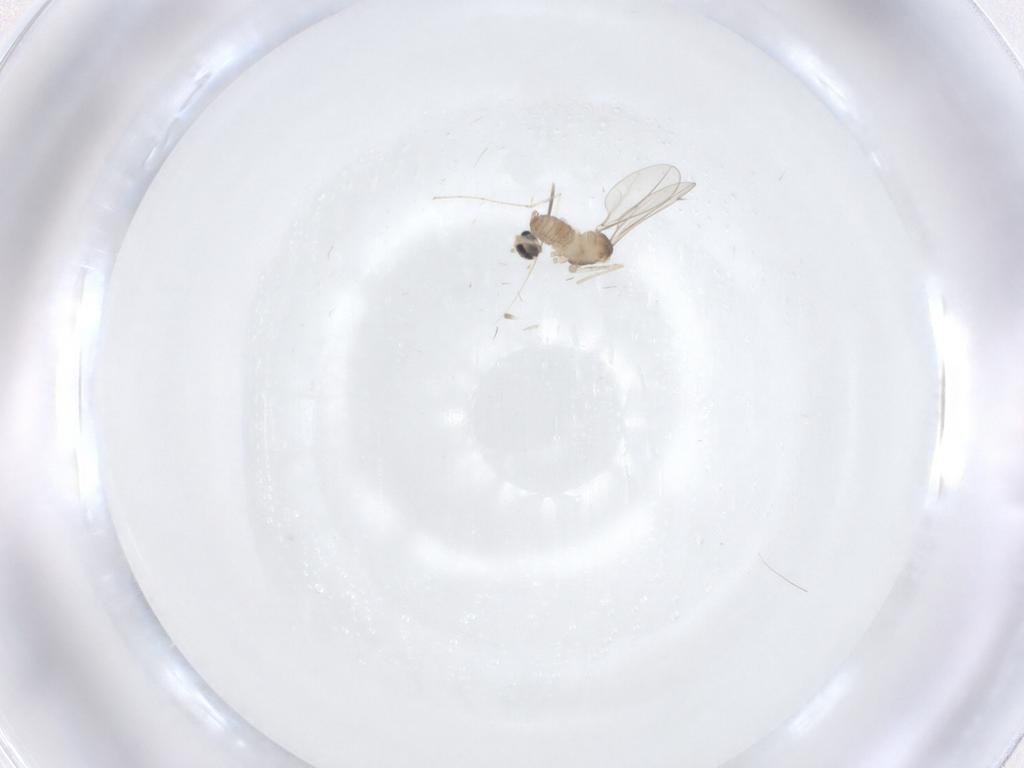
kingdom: Animalia
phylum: Arthropoda
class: Insecta
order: Diptera
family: Cecidomyiidae
